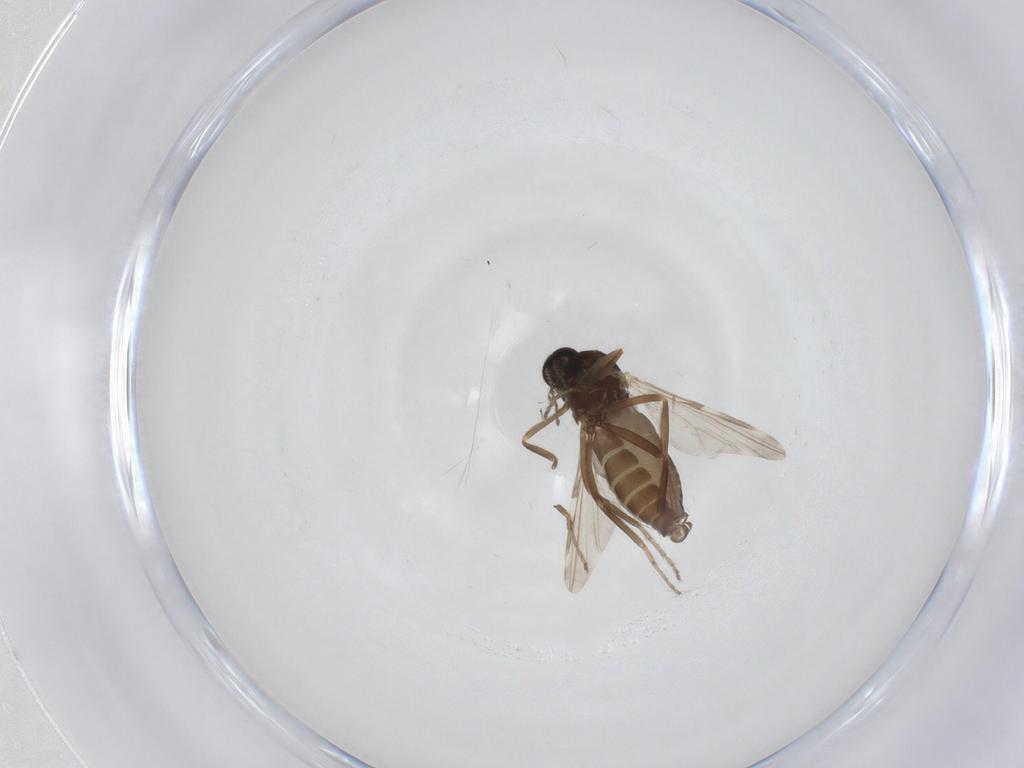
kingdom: Animalia
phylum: Arthropoda
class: Insecta
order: Diptera
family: Ceratopogonidae
